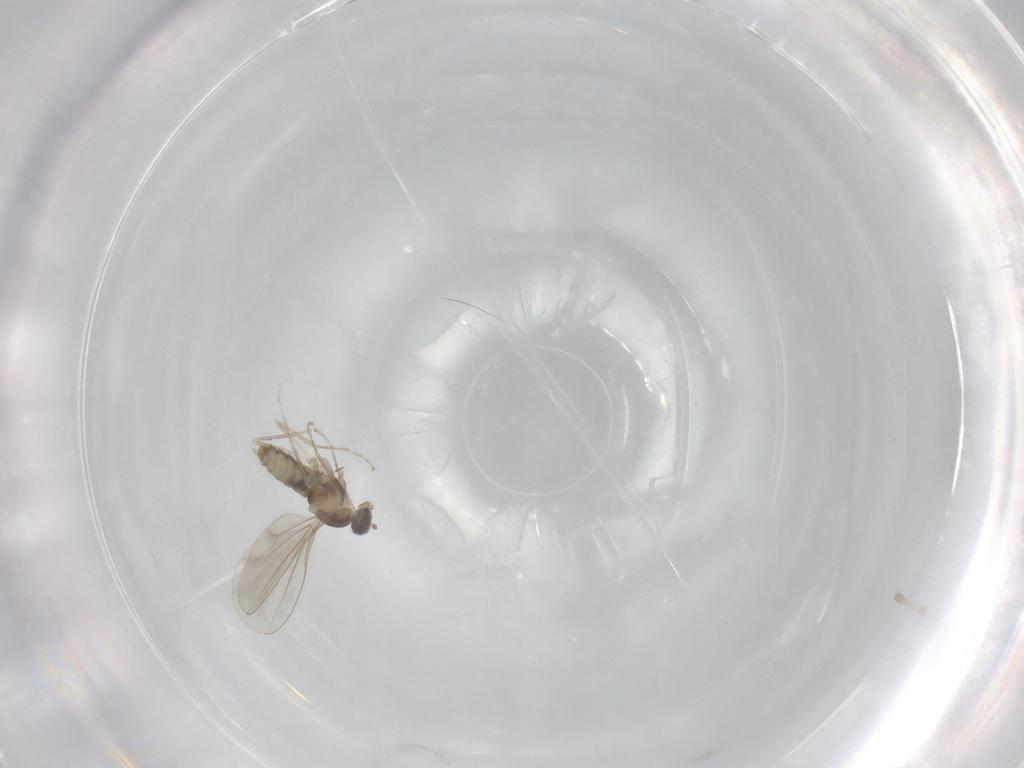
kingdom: Animalia
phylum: Arthropoda
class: Insecta
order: Diptera
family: Cecidomyiidae
